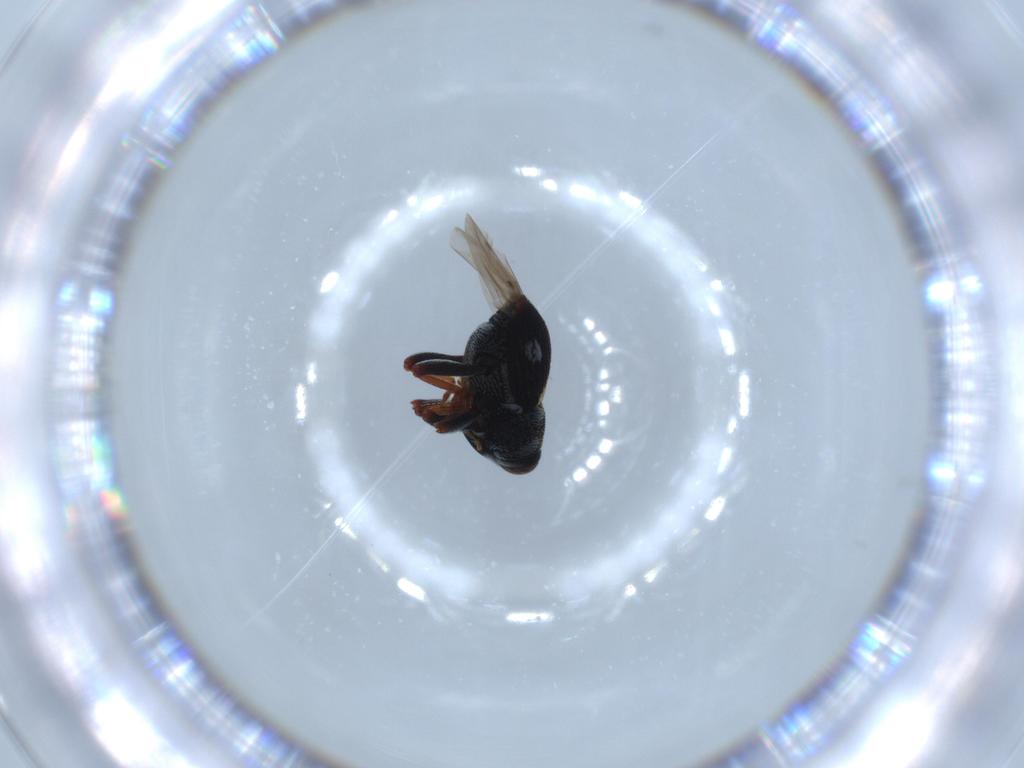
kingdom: Animalia
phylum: Arthropoda
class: Insecta
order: Coleoptera
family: Curculionidae
